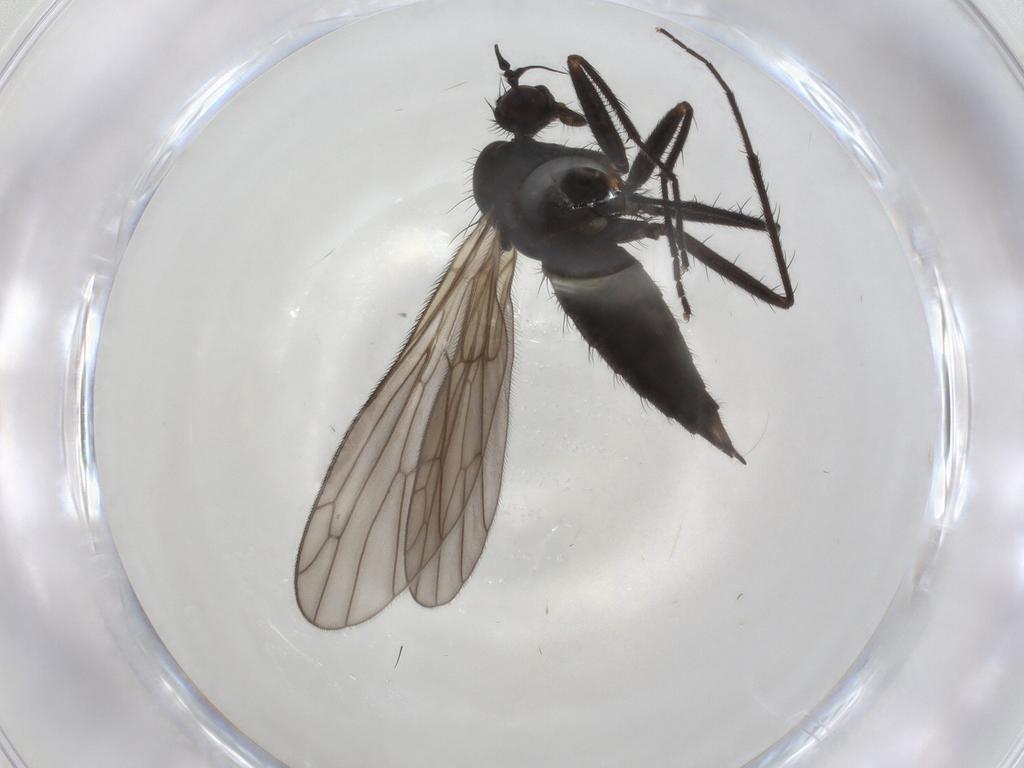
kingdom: Animalia
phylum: Arthropoda
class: Insecta
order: Diptera
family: Empididae
